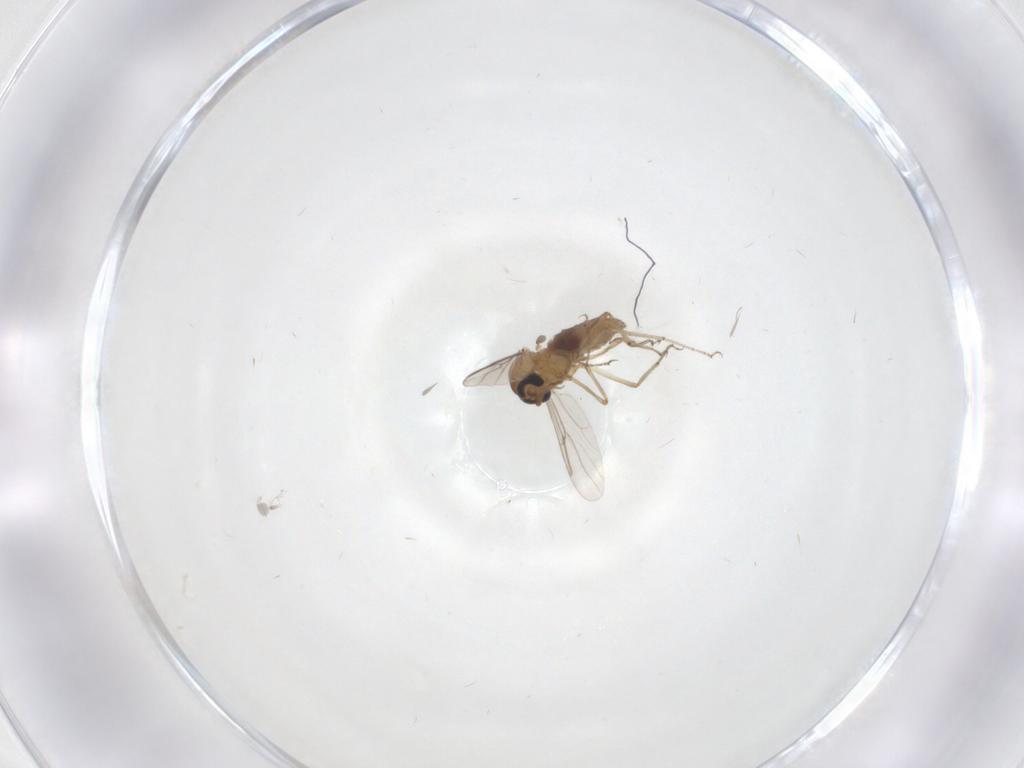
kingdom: Animalia
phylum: Arthropoda
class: Insecta
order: Diptera
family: Chironomidae
